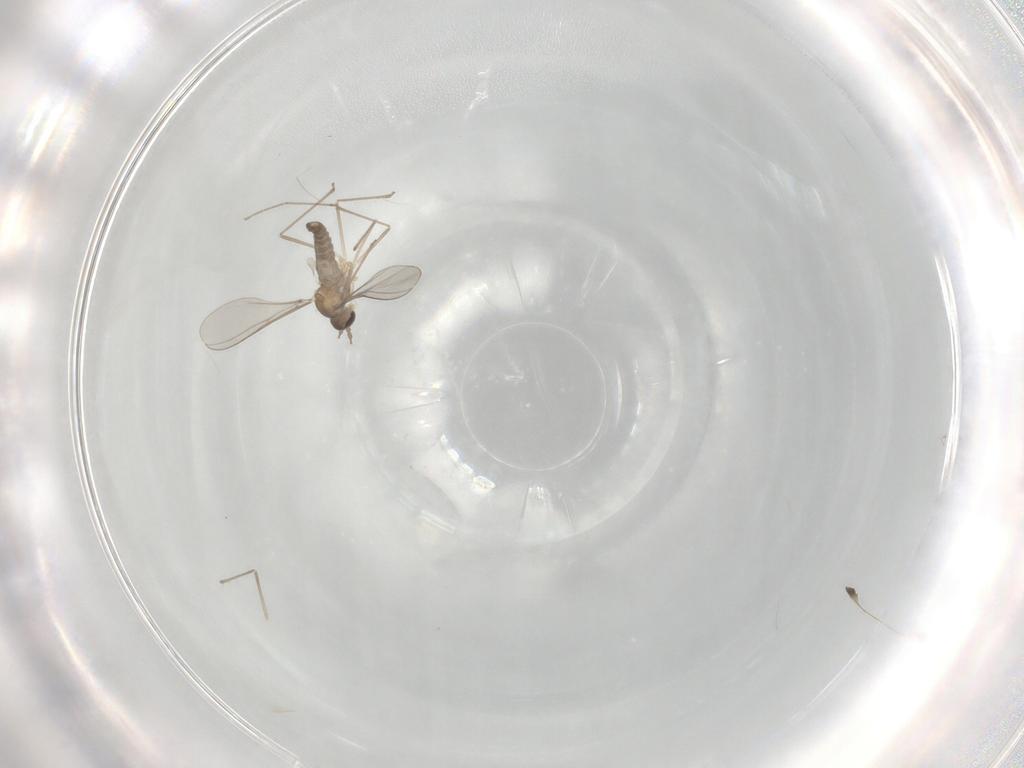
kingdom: Animalia
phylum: Arthropoda
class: Insecta
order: Diptera
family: Cecidomyiidae
